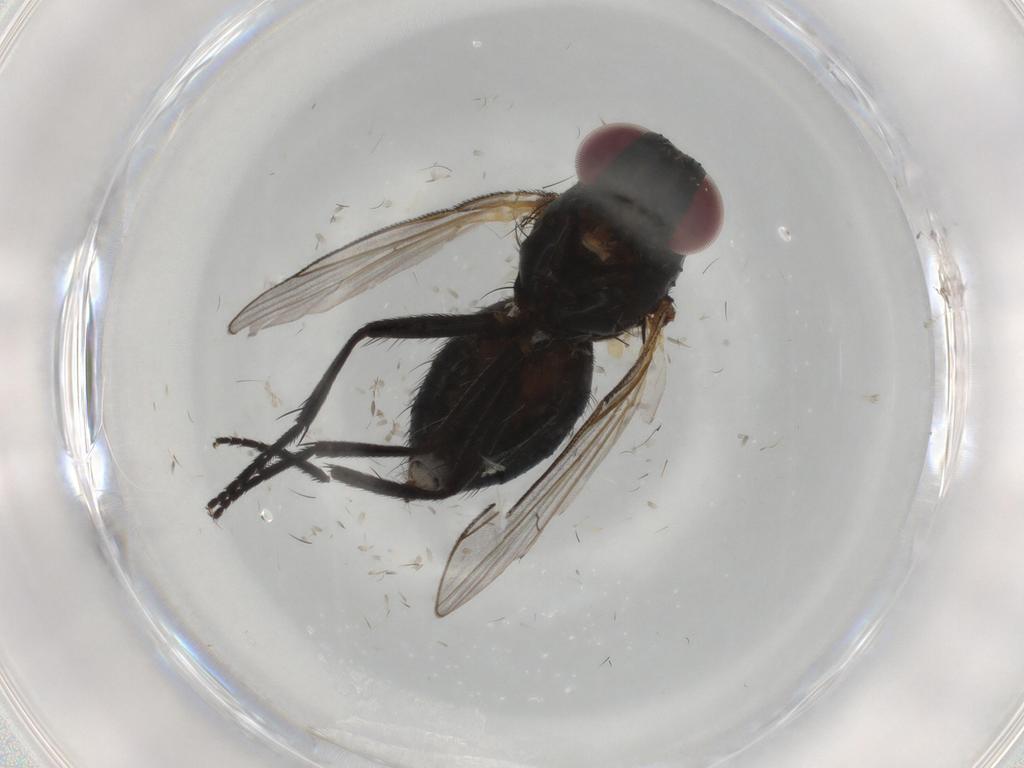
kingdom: Animalia
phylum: Arthropoda
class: Insecta
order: Diptera
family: Fannia
